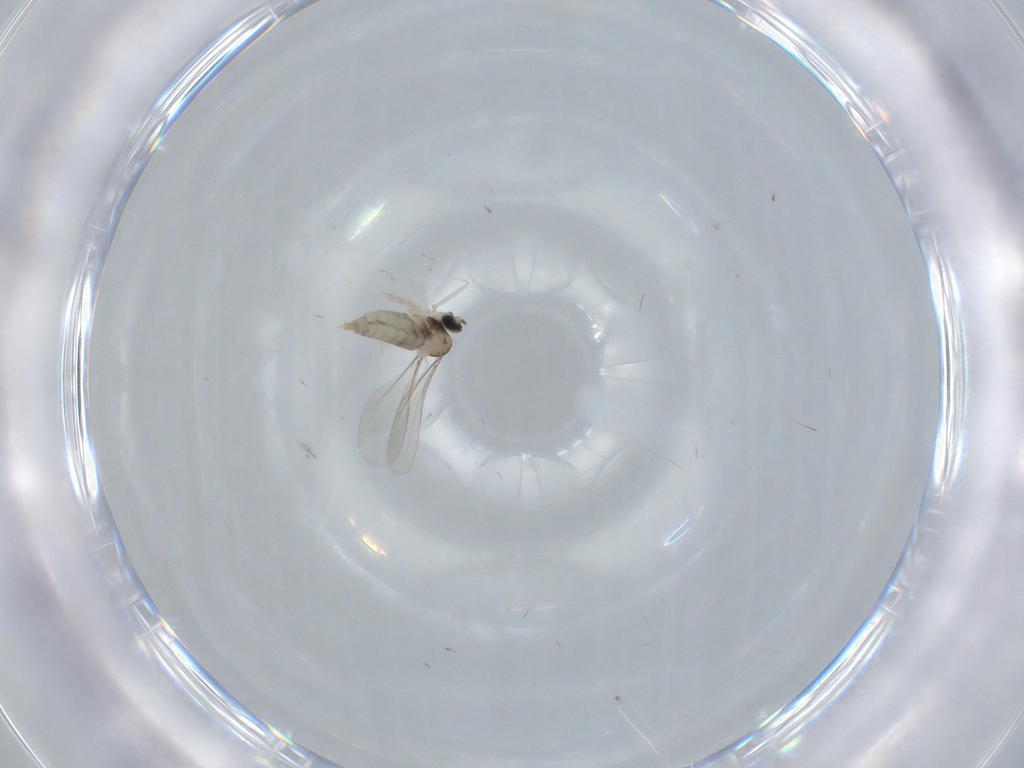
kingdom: Animalia
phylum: Arthropoda
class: Insecta
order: Diptera
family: Cecidomyiidae
